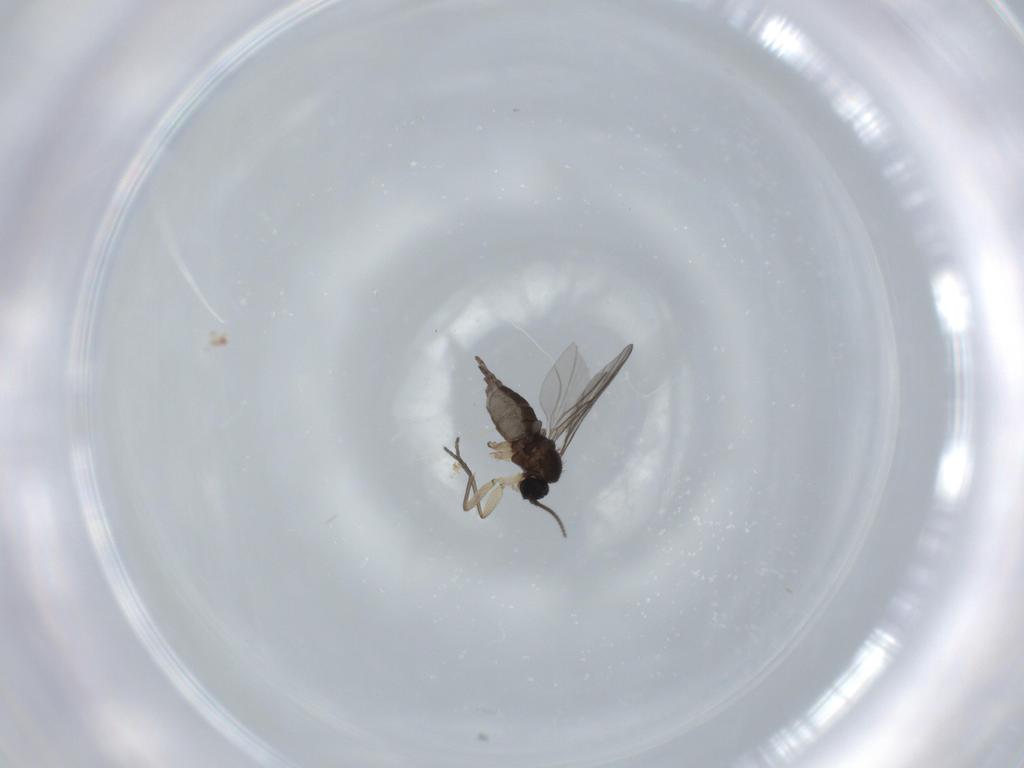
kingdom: Animalia
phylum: Arthropoda
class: Insecta
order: Diptera
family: Sciaridae
